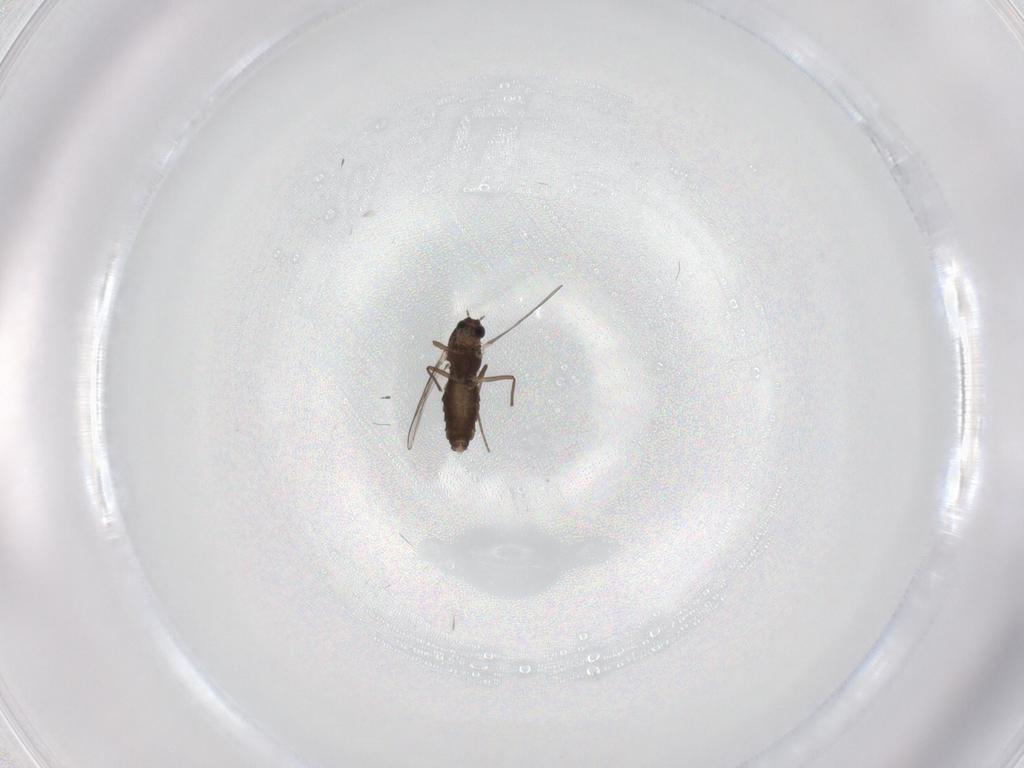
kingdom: Animalia
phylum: Arthropoda
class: Insecta
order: Diptera
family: Chironomidae
